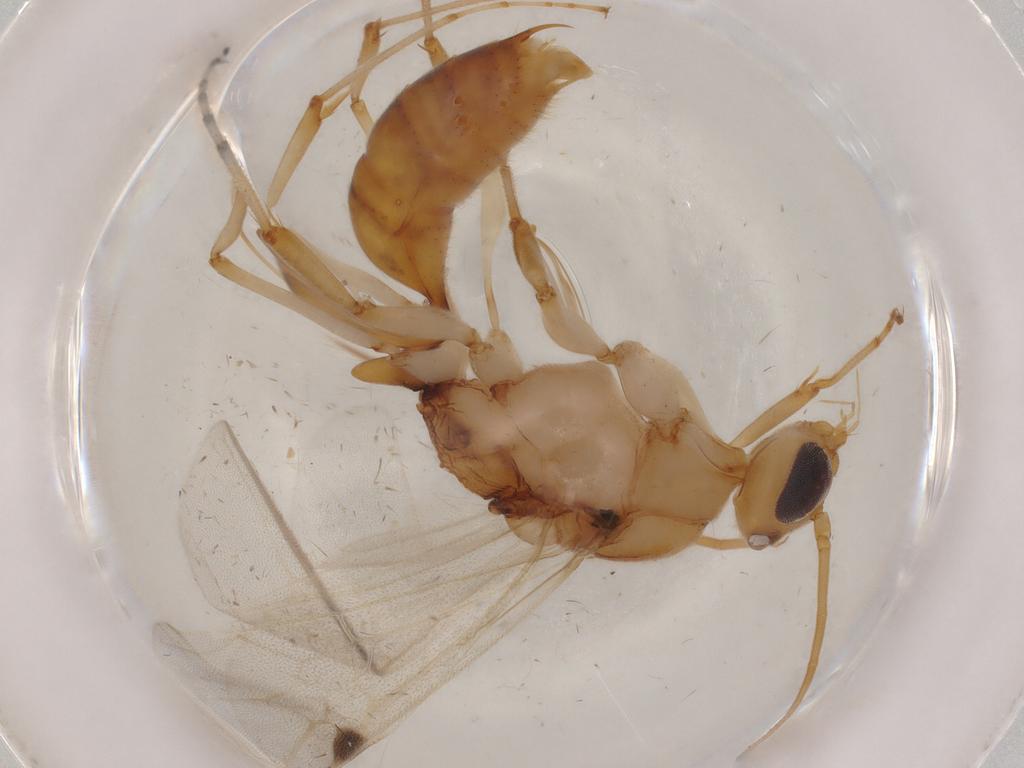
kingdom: Animalia
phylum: Arthropoda
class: Insecta
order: Hymenoptera
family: Formicidae
